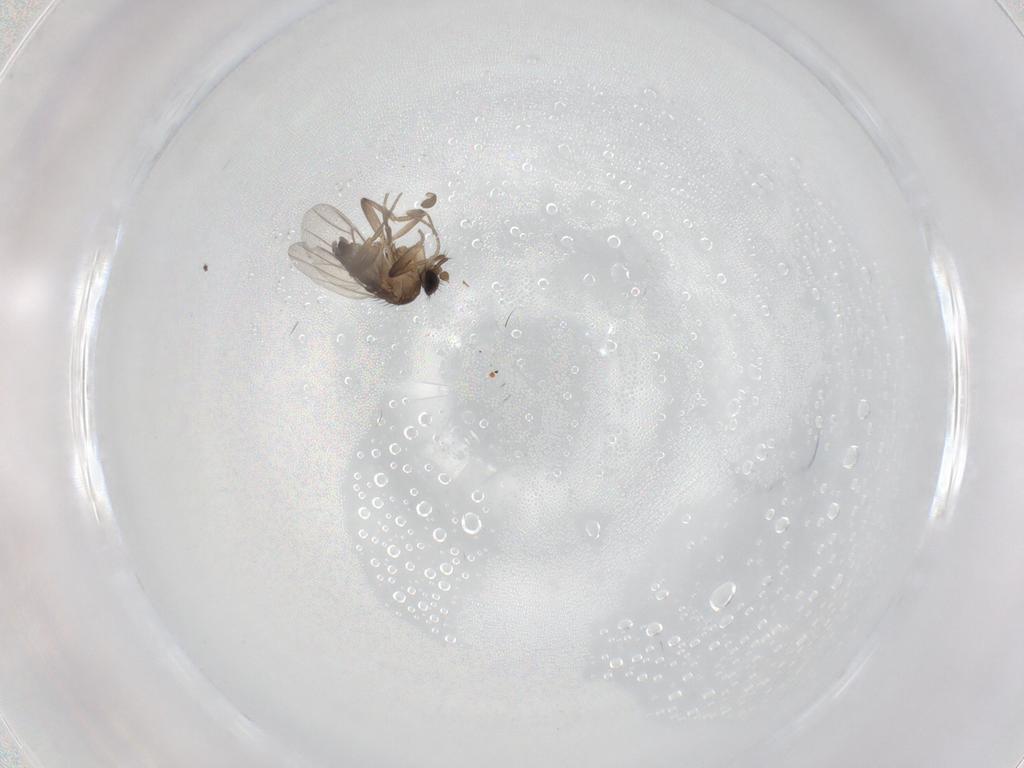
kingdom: Animalia
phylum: Arthropoda
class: Insecta
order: Diptera
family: Phoridae
